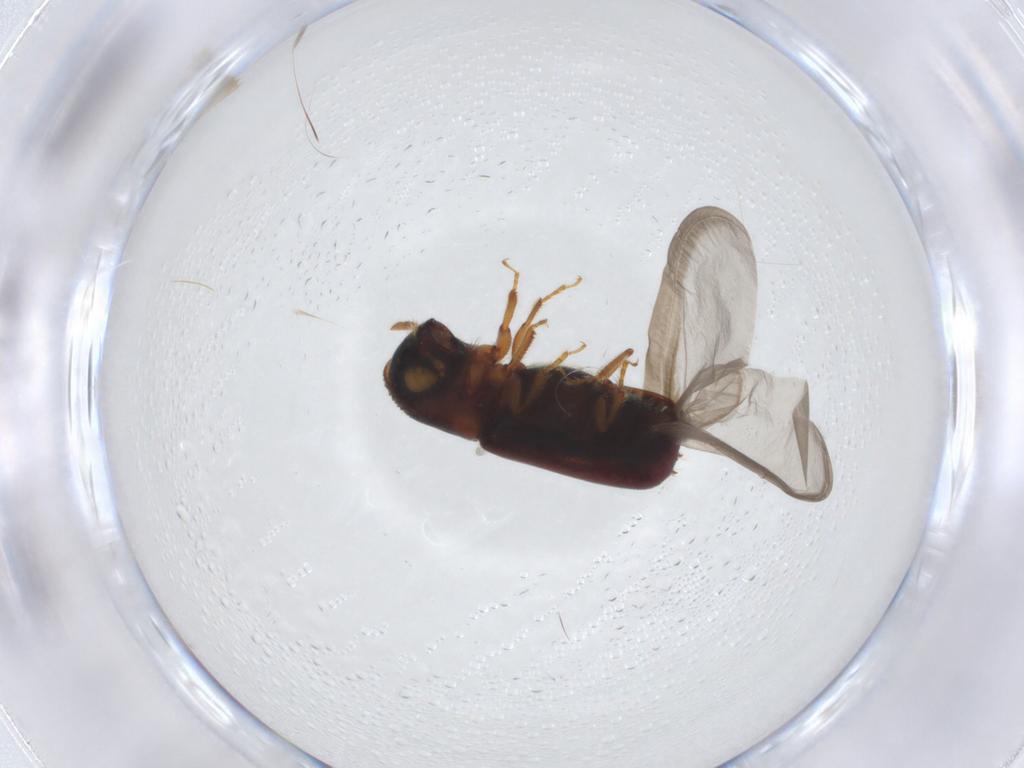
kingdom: Animalia
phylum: Arthropoda
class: Insecta
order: Coleoptera
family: Curculionidae
